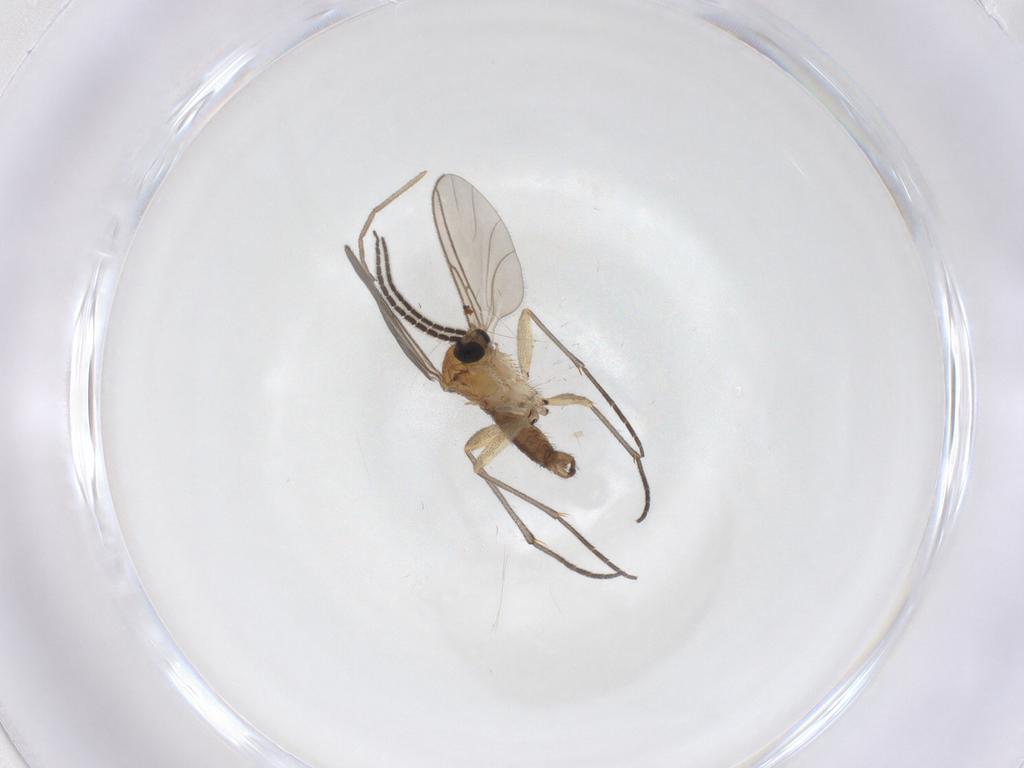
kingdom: Animalia
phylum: Arthropoda
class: Insecta
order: Diptera
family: Sciaridae
